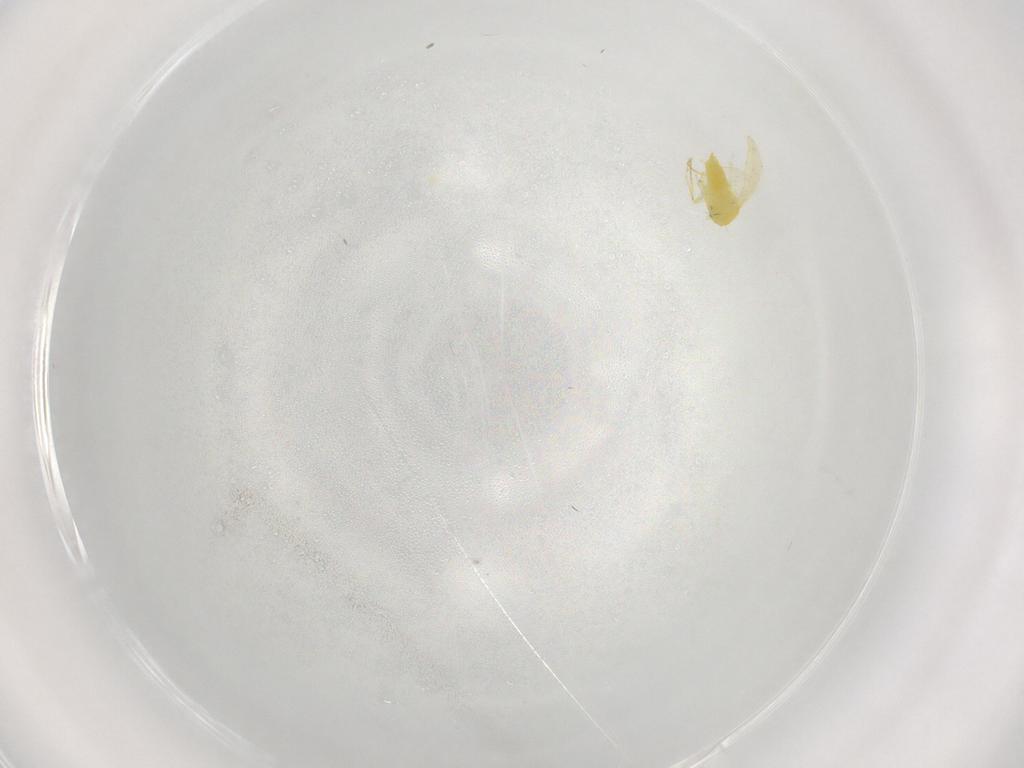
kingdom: Animalia
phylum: Arthropoda
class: Insecta
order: Hemiptera
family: Aleyrodidae
